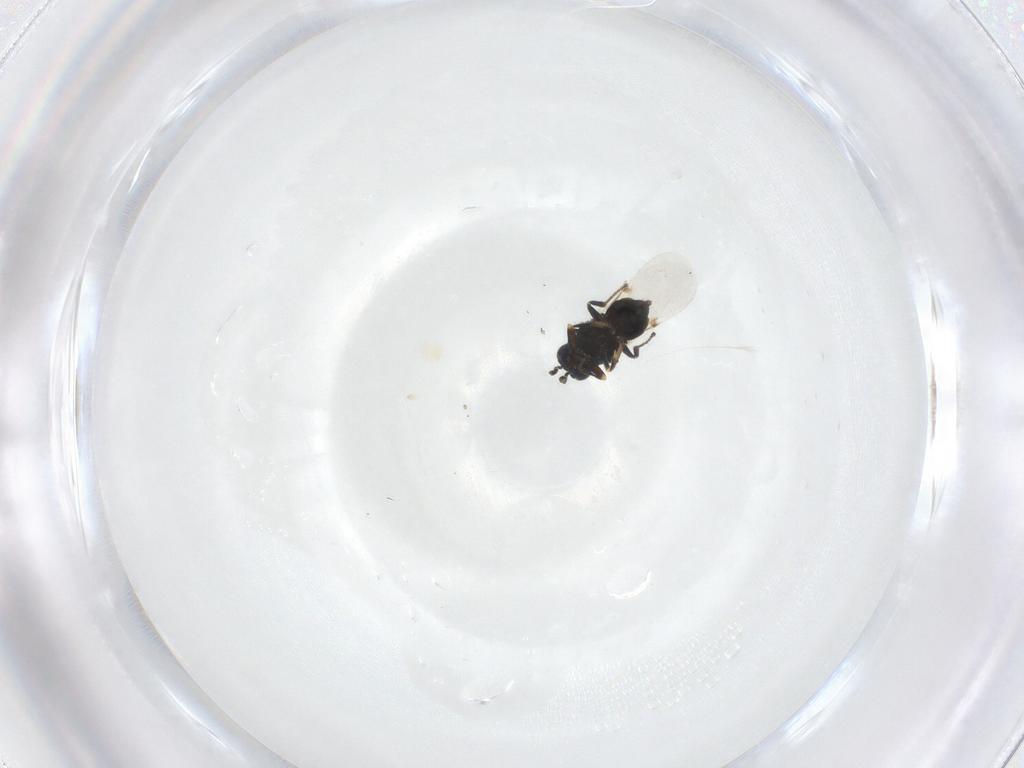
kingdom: Animalia
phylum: Arthropoda
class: Insecta
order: Hymenoptera
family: Encyrtidae
